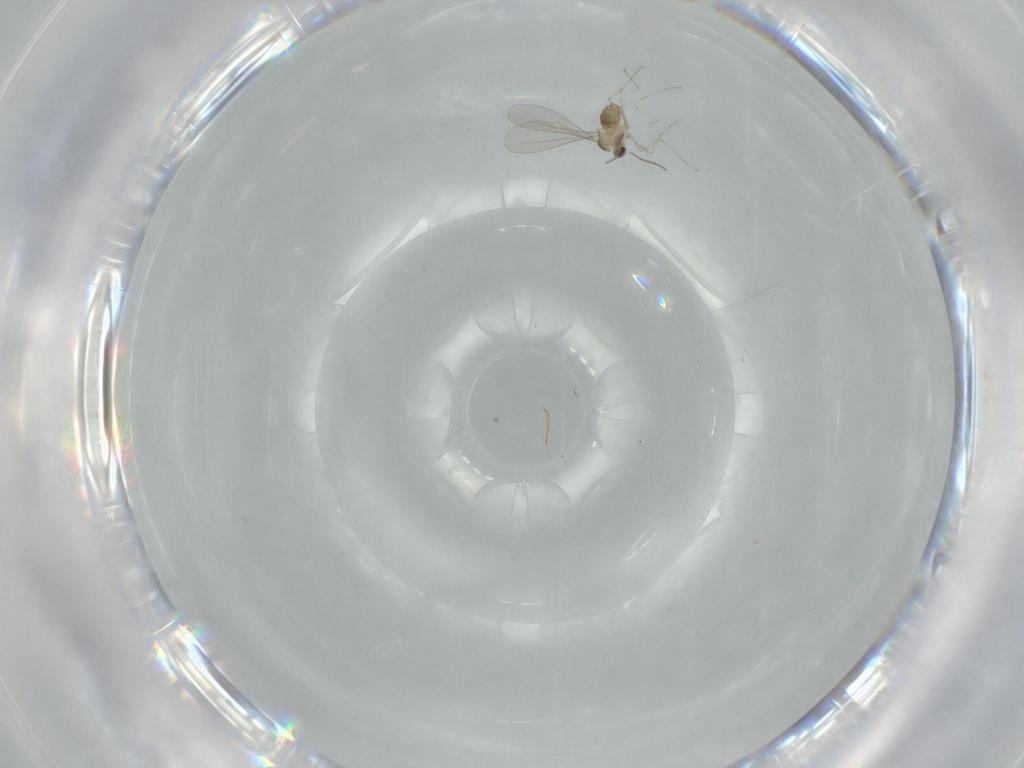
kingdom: Animalia
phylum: Arthropoda
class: Insecta
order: Diptera
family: Cecidomyiidae
